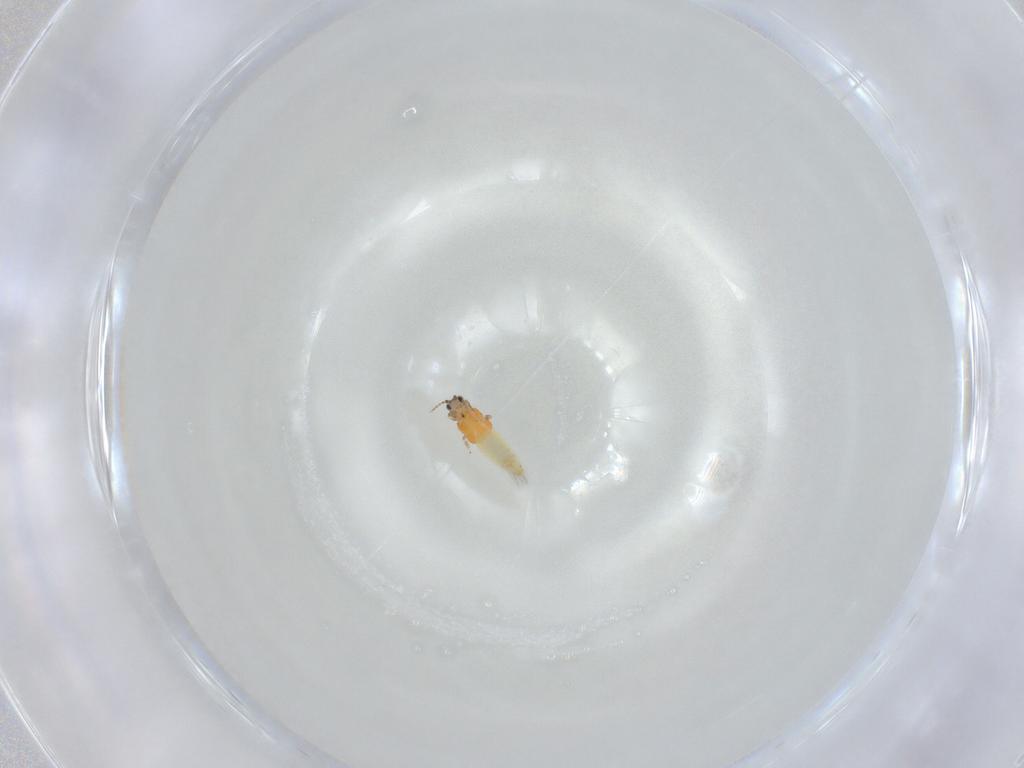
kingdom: Animalia
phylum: Arthropoda
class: Insecta
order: Thysanoptera
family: Thripidae
